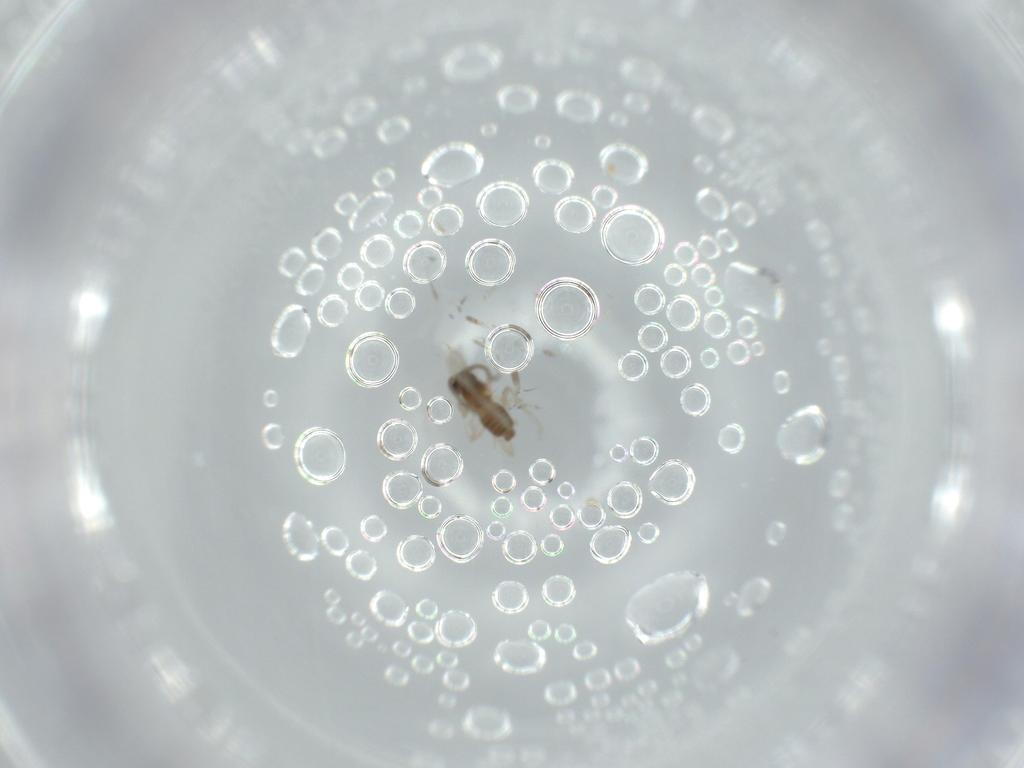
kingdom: Animalia
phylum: Arthropoda
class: Insecta
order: Diptera
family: Cecidomyiidae
